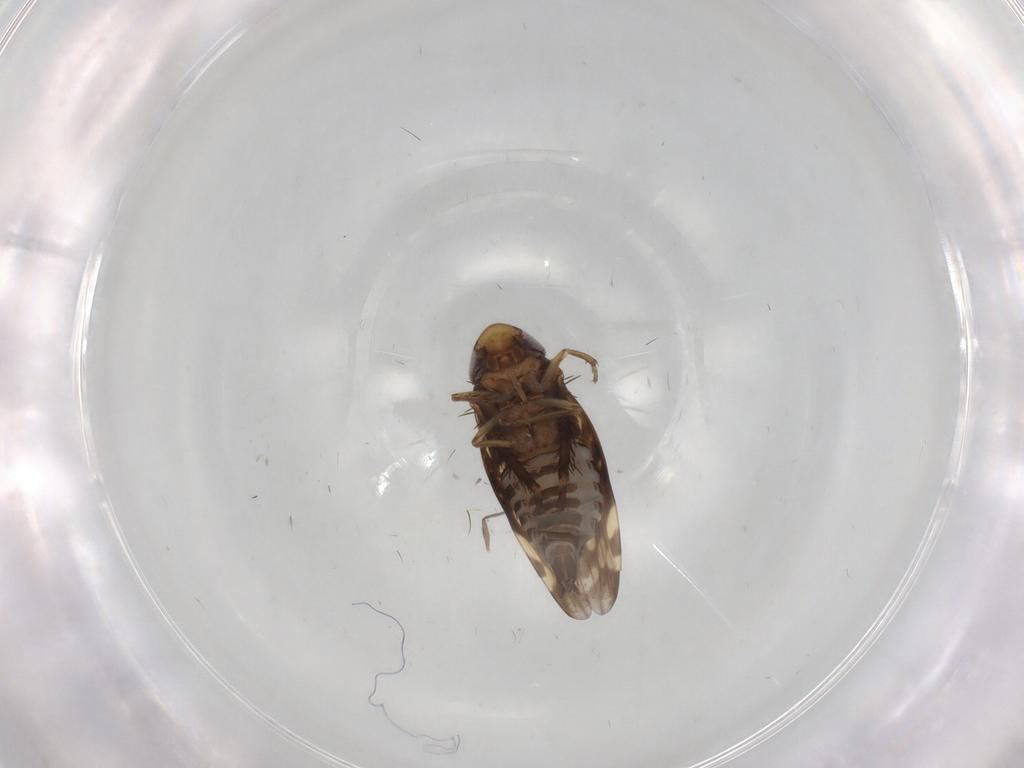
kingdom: Animalia
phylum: Arthropoda
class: Insecta
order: Hemiptera
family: Cicadellidae
